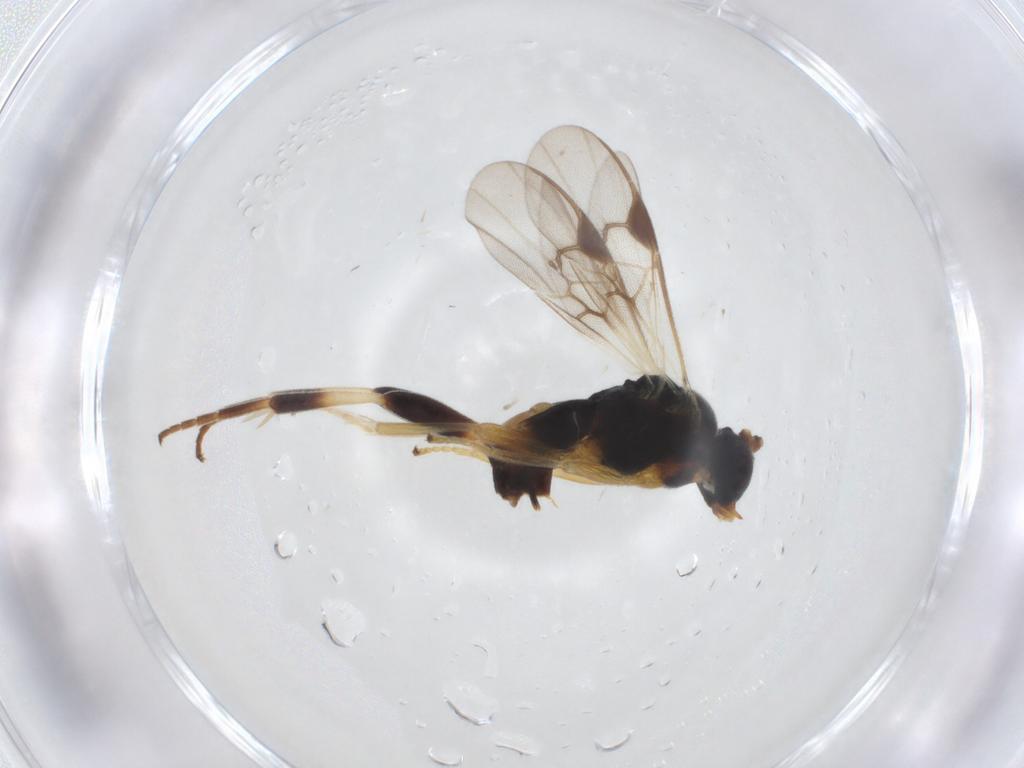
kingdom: Animalia
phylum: Arthropoda
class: Insecta
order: Hymenoptera
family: Braconidae
